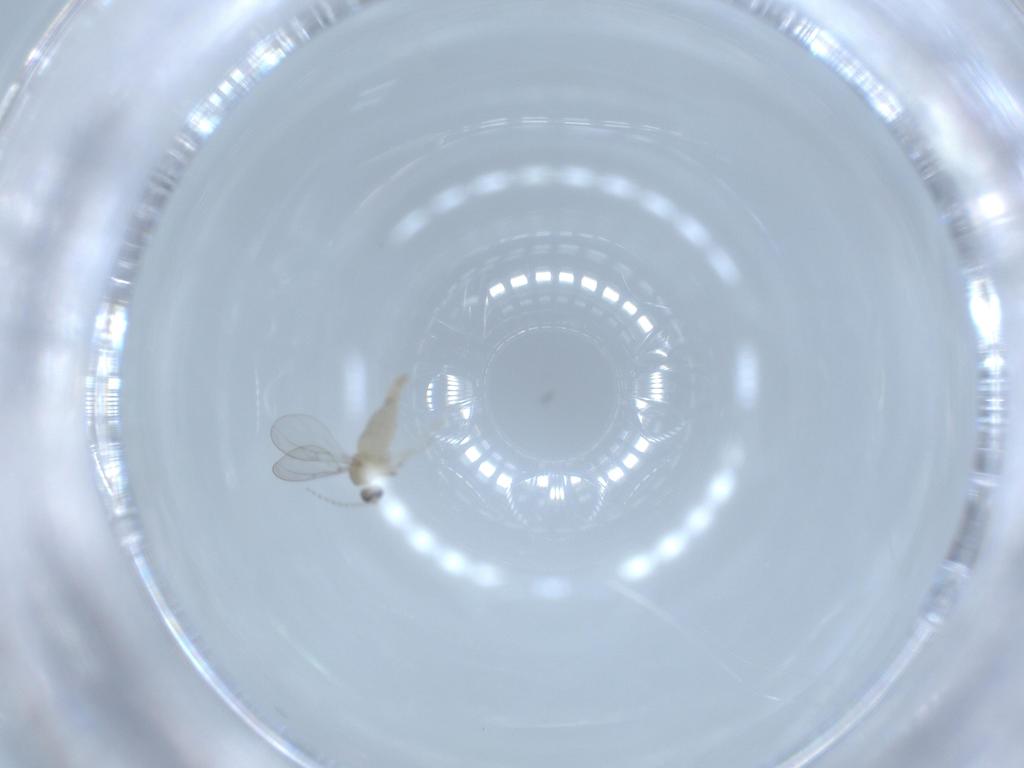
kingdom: Animalia
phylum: Arthropoda
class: Insecta
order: Diptera
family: Cecidomyiidae
